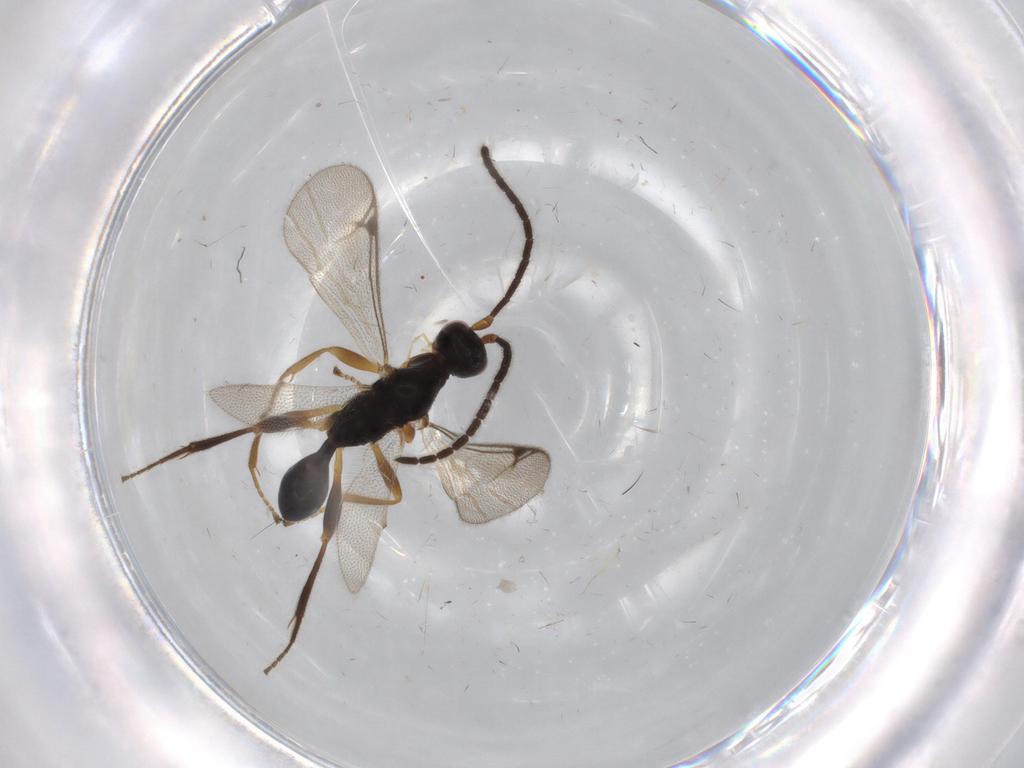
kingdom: Animalia
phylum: Arthropoda
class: Insecta
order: Hymenoptera
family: Proctotrupidae
